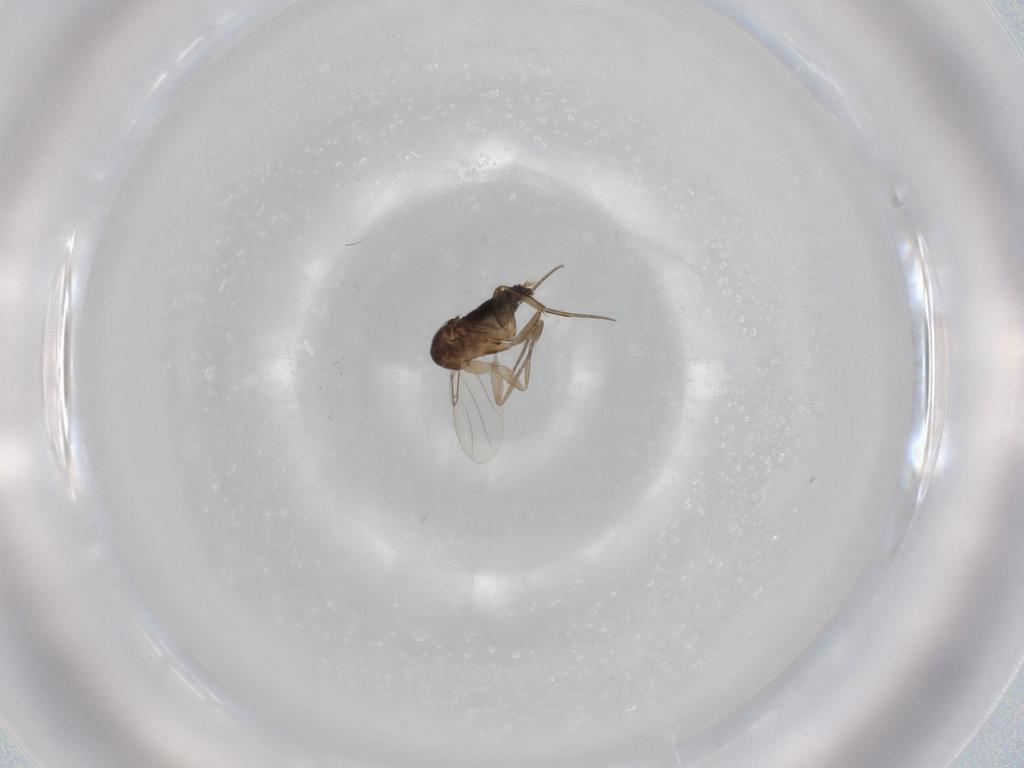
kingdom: Animalia
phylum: Arthropoda
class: Insecta
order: Diptera
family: Phoridae
